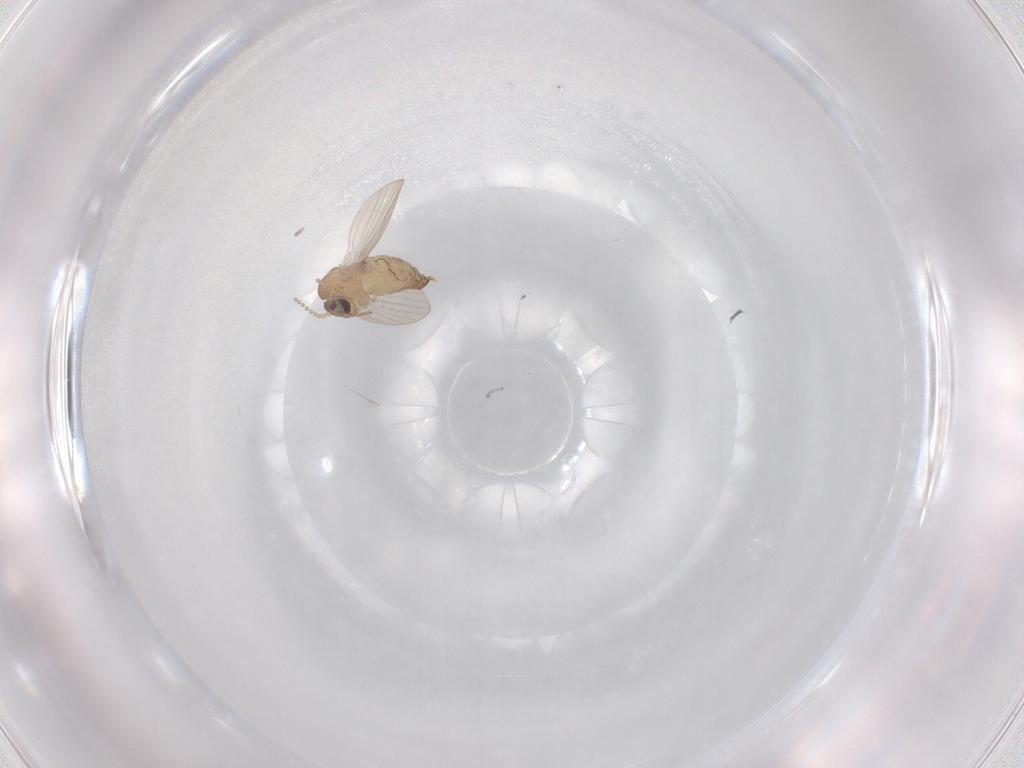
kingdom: Animalia
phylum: Arthropoda
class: Insecta
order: Diptera
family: Psychodidae
